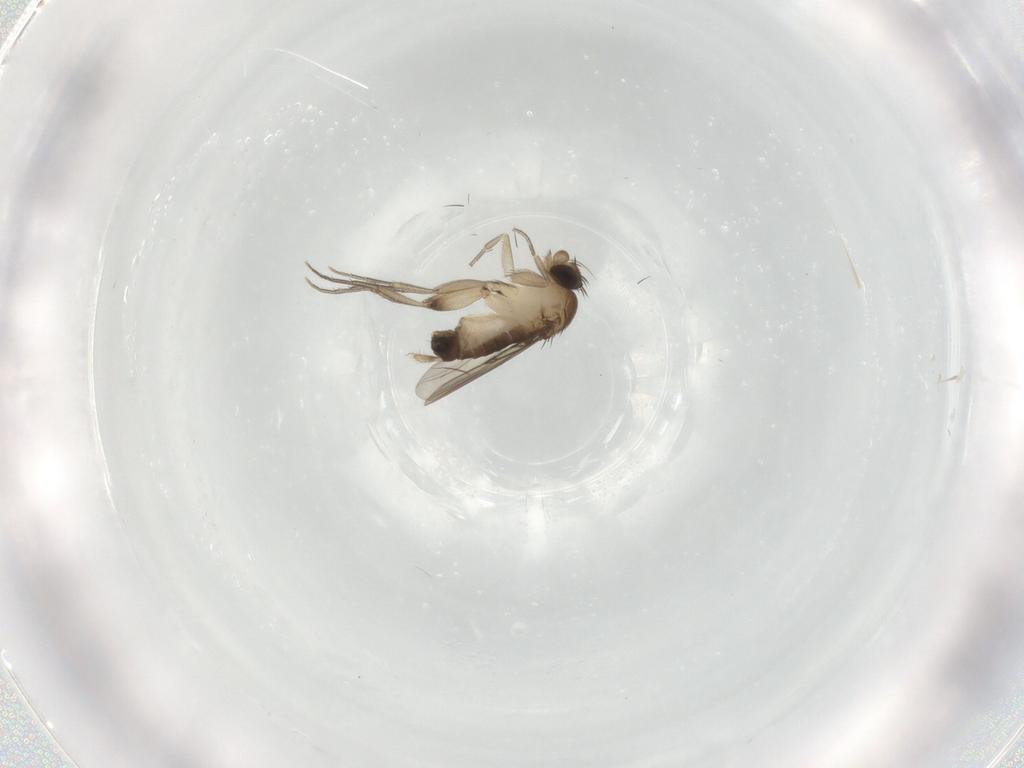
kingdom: Animalia
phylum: Arthropoda
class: Insecta
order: Diptera
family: Phoridae
